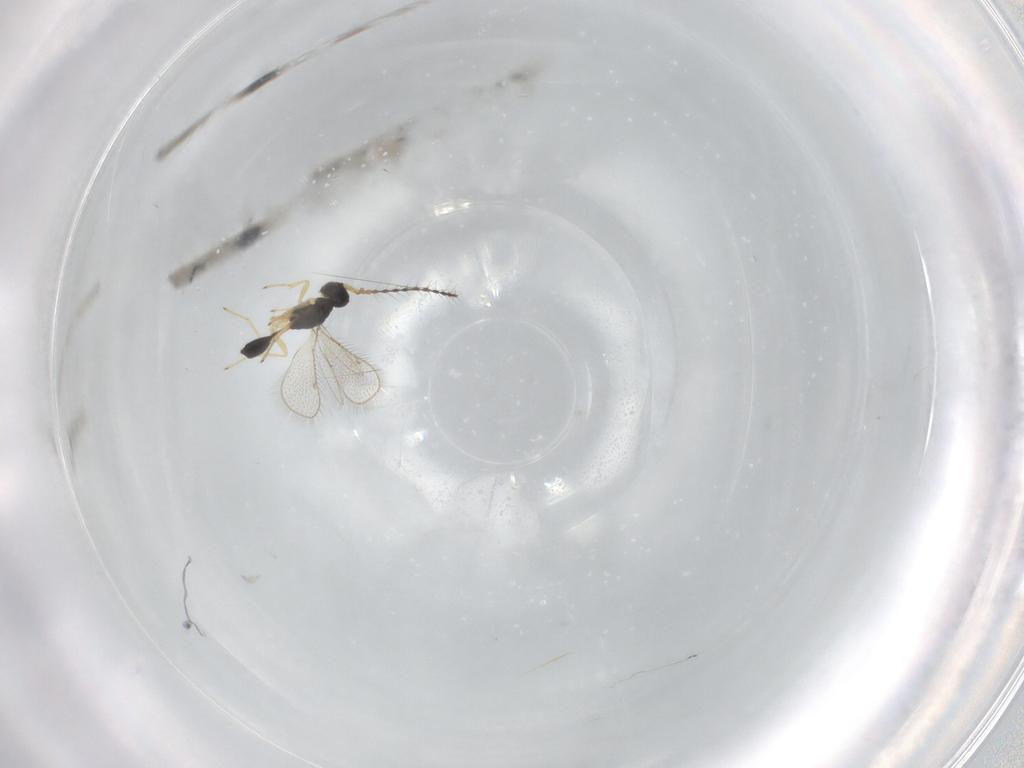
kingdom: Animalia
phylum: Arthropoda
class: Insecta
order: Hymenoptera
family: Diparidae
